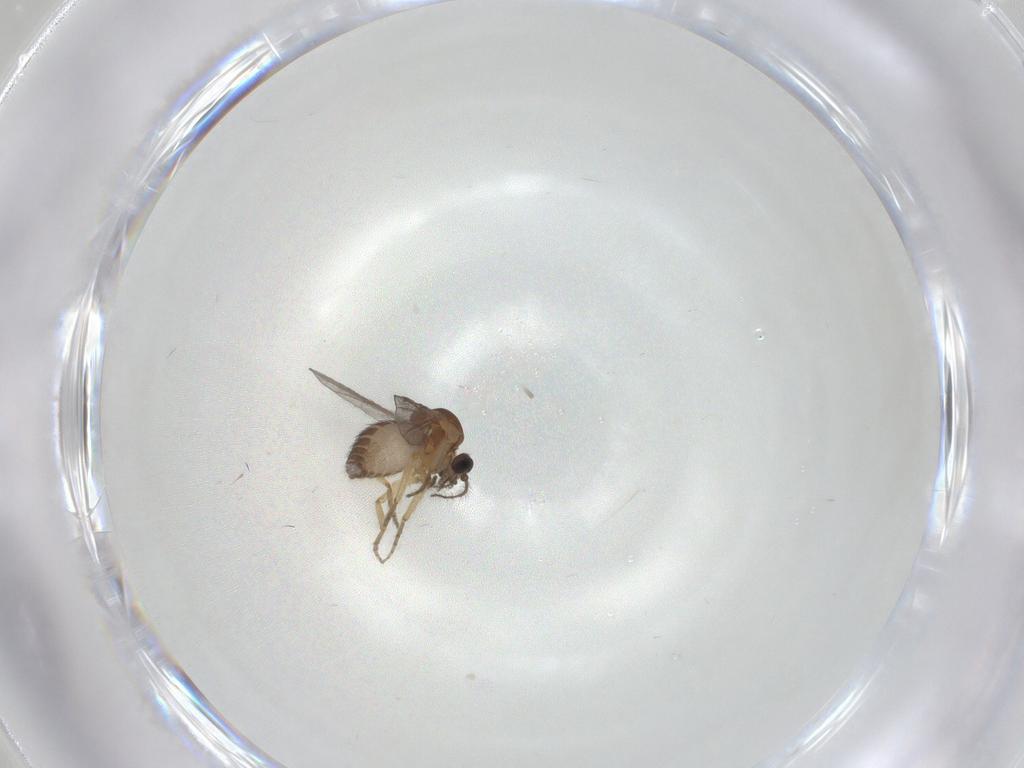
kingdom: Animalia
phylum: Arthropoda
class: Insecta
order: Diptera
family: Ceratopogonidae
